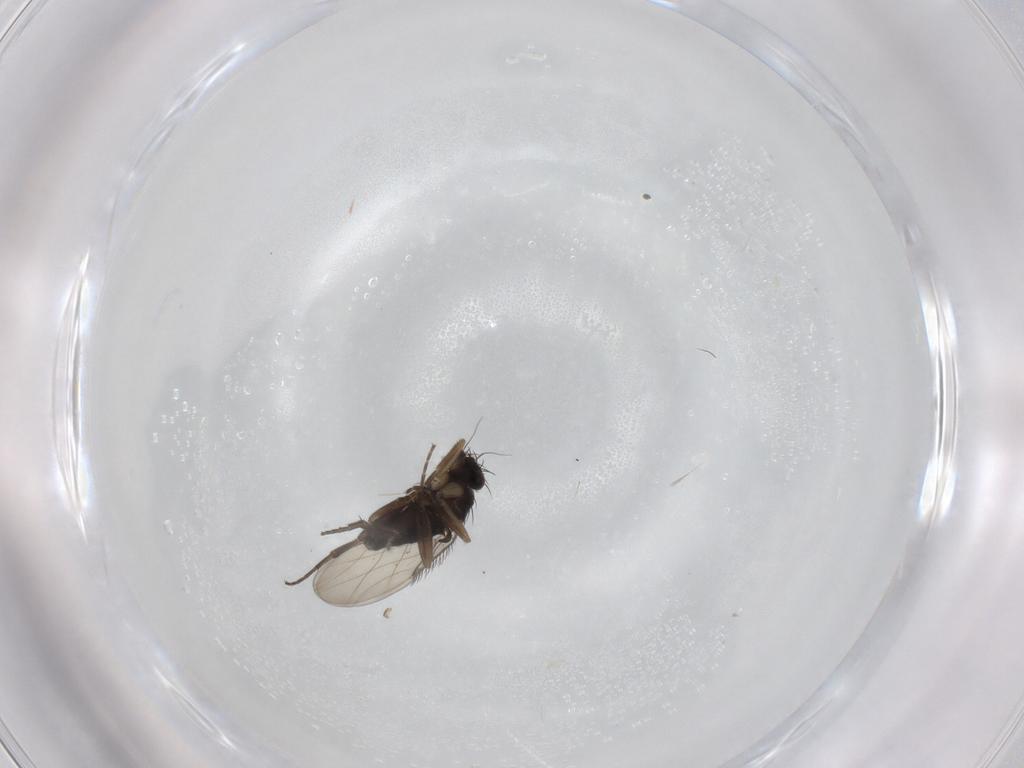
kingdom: Animalia
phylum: Arthropoda
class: Insecta
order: Diptera
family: Phoridae
